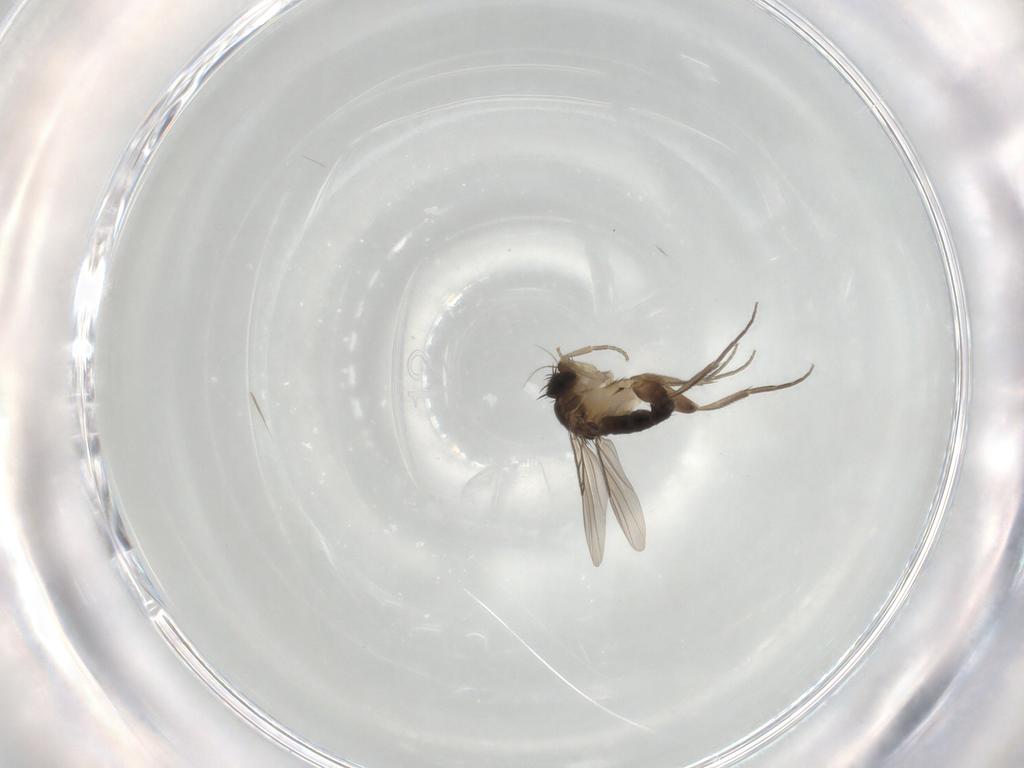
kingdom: Animalia
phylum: Arthropoda
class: Insecta
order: Diptera
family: Phoridae
